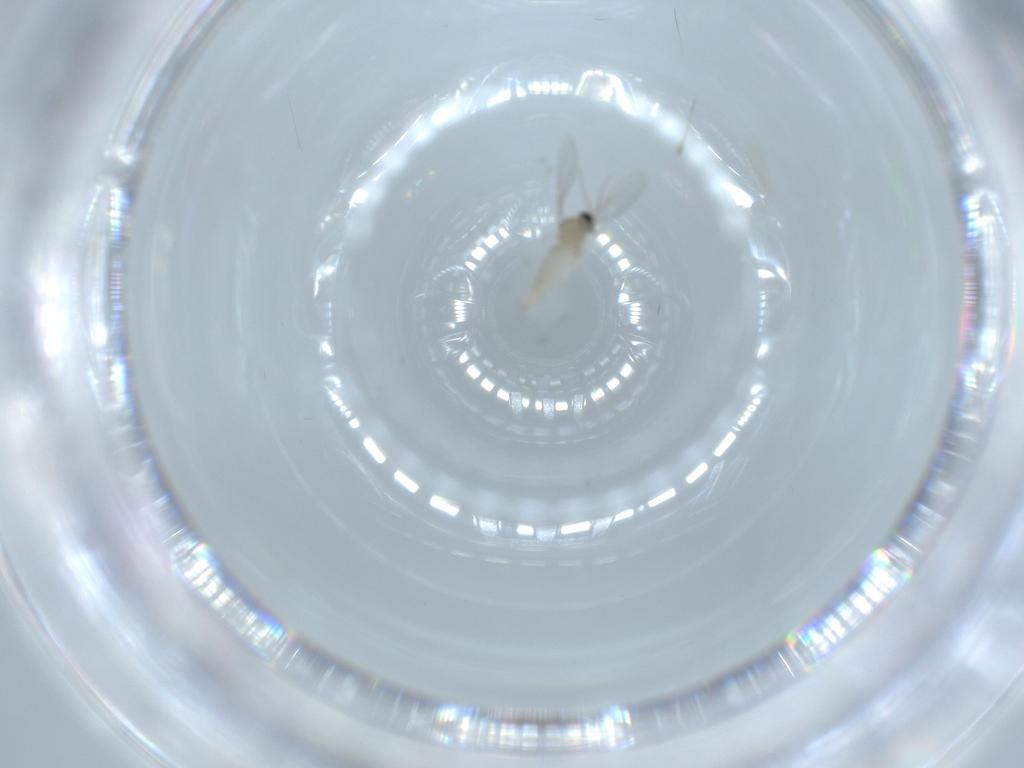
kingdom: Animalia
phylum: Arthropoda
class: Insecta
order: Diptera
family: Cecidomyiidae
